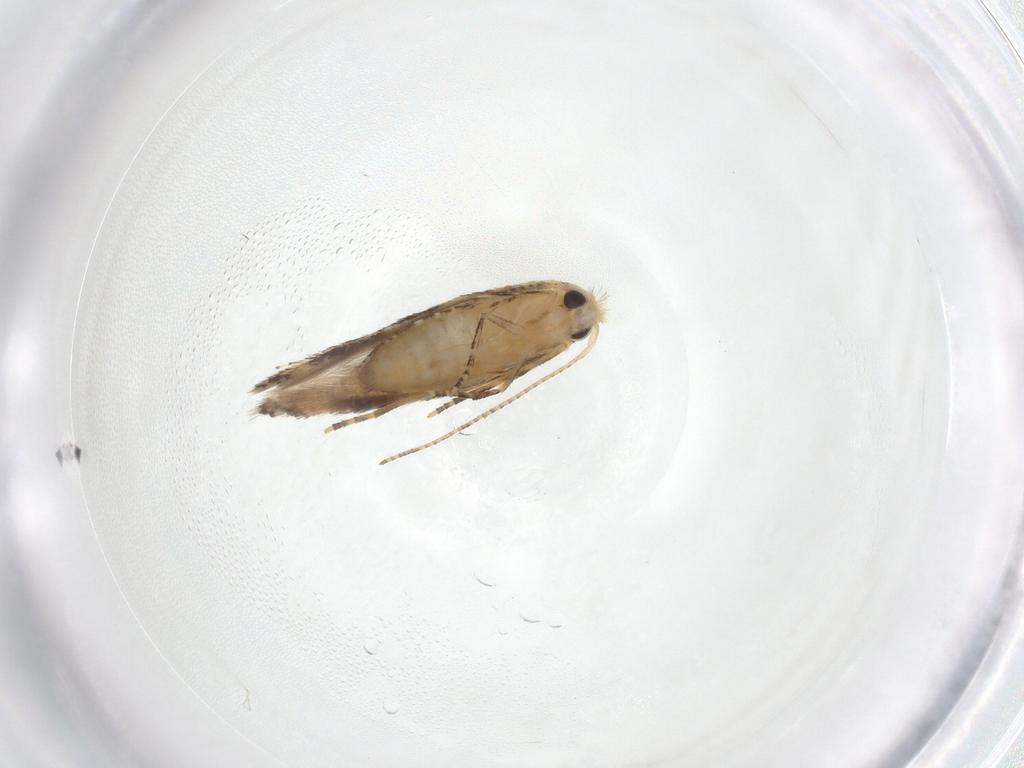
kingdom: Animalia
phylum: Arthropoda
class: Insecta
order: Lepidoptera
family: Bucculatricidae
